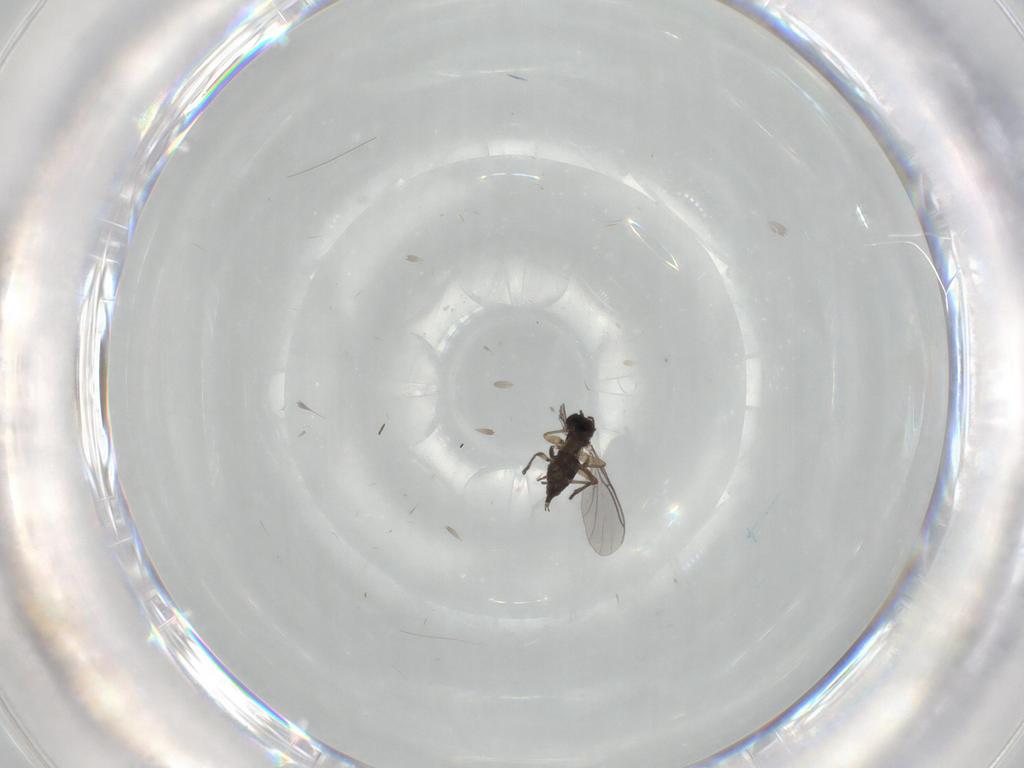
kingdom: Animalia
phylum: Arthropoda
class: Insecta
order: Diptera
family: Sciaridae
